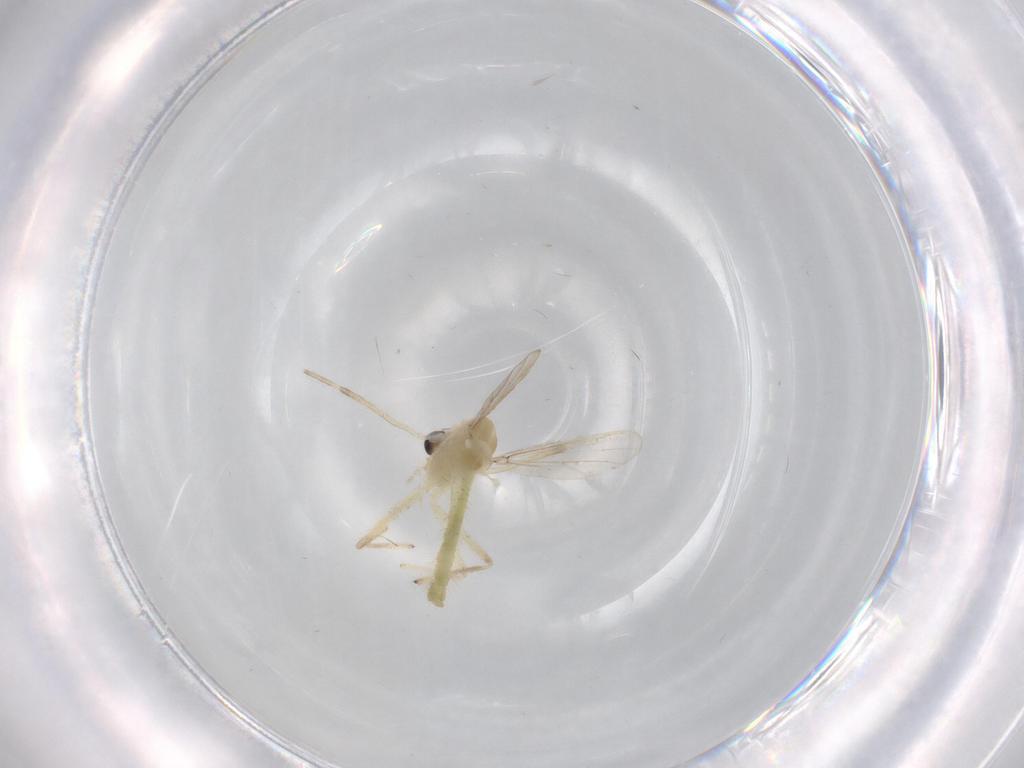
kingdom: Animalia
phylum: Arthropoda
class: Insecta
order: Diptera
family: Chironomidae
